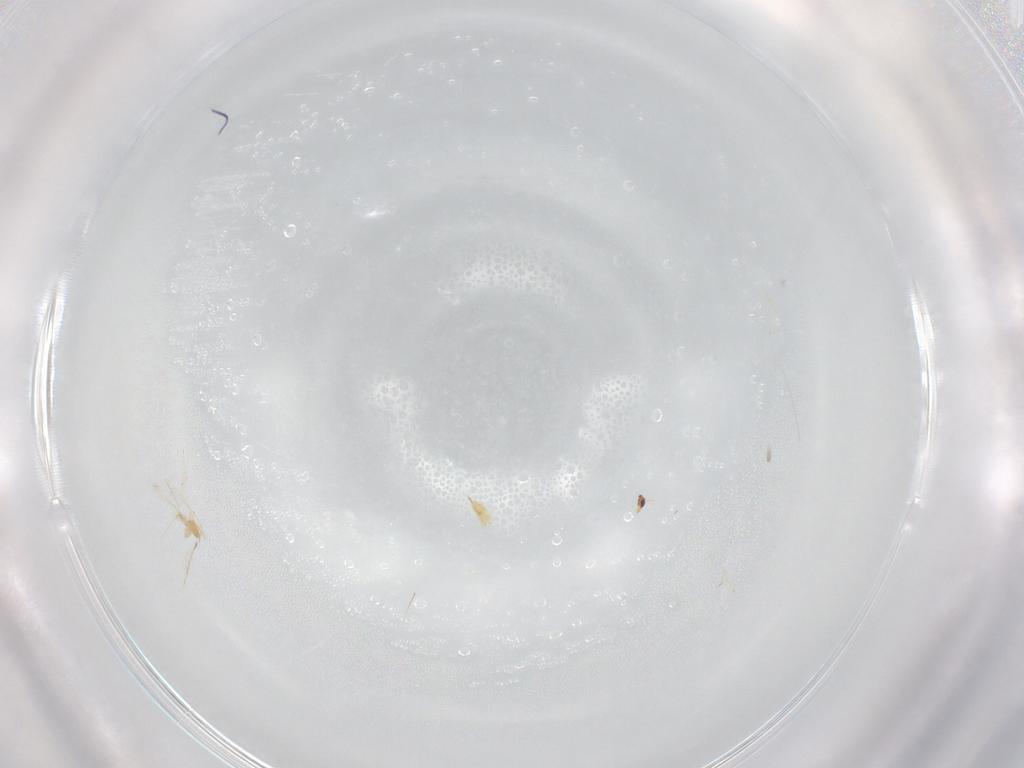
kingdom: Animalia
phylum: Arthropoda
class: Insecta
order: Hymenoptera
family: Mymaridae
